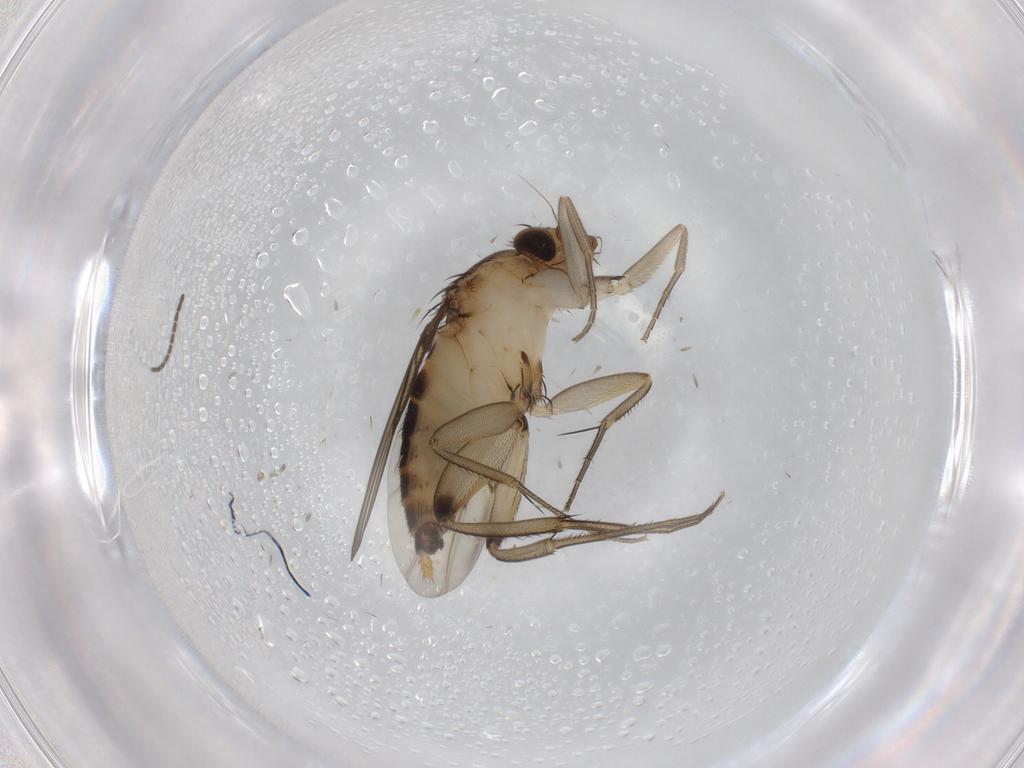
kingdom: Animalia
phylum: Arthropoda
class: Insecta
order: Diptera
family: Phoridae
